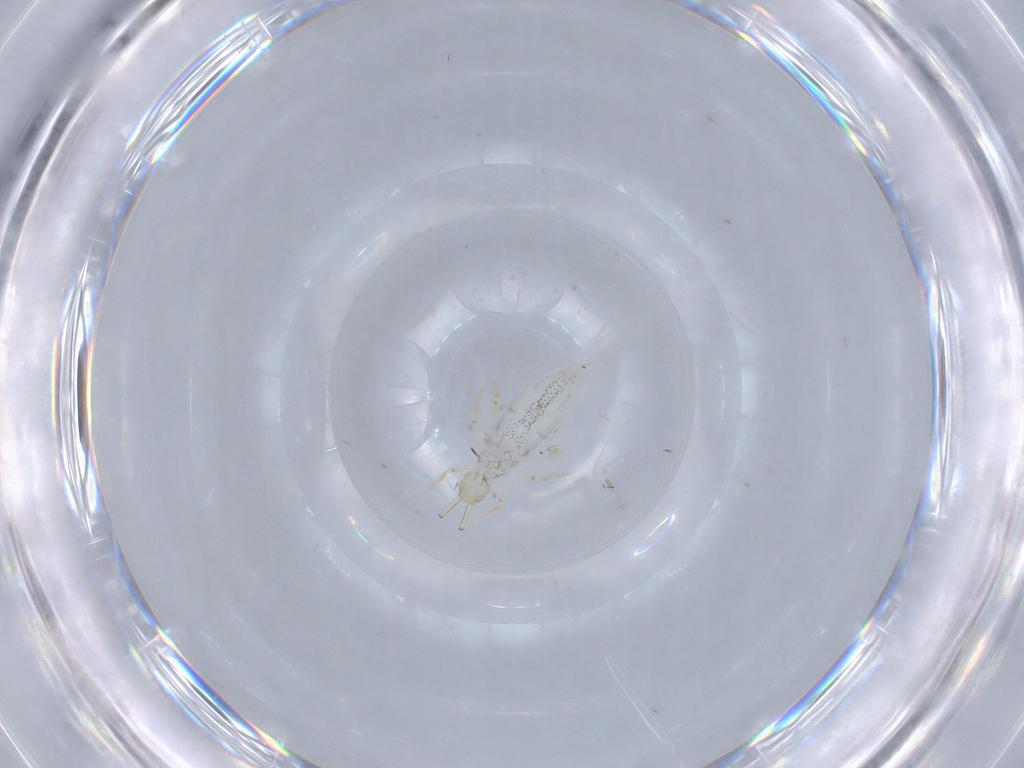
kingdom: Animalia
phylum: Arthropoda
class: Collembola
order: Entomobryomorpha
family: Paronellidae
